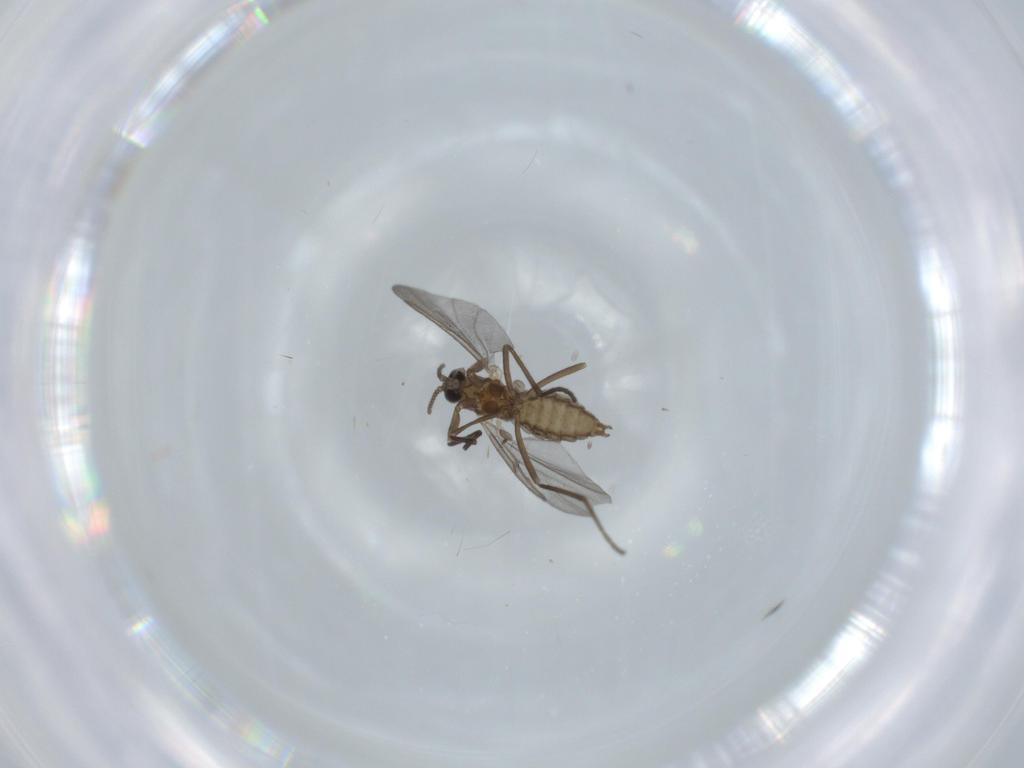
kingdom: Animalia
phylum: Arthropoda
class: Insecta
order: Diptera
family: Cecidomyiidae
